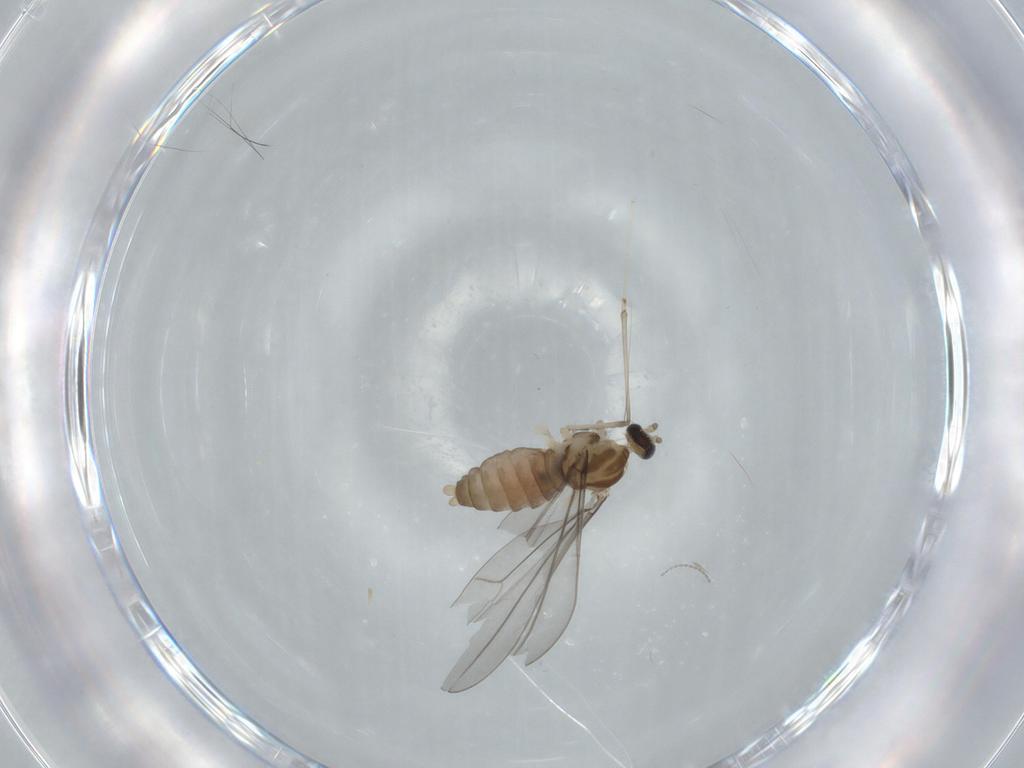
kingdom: Animalia
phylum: Arthropoda
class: Insecta
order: Diptera
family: Cecidomyiidae
